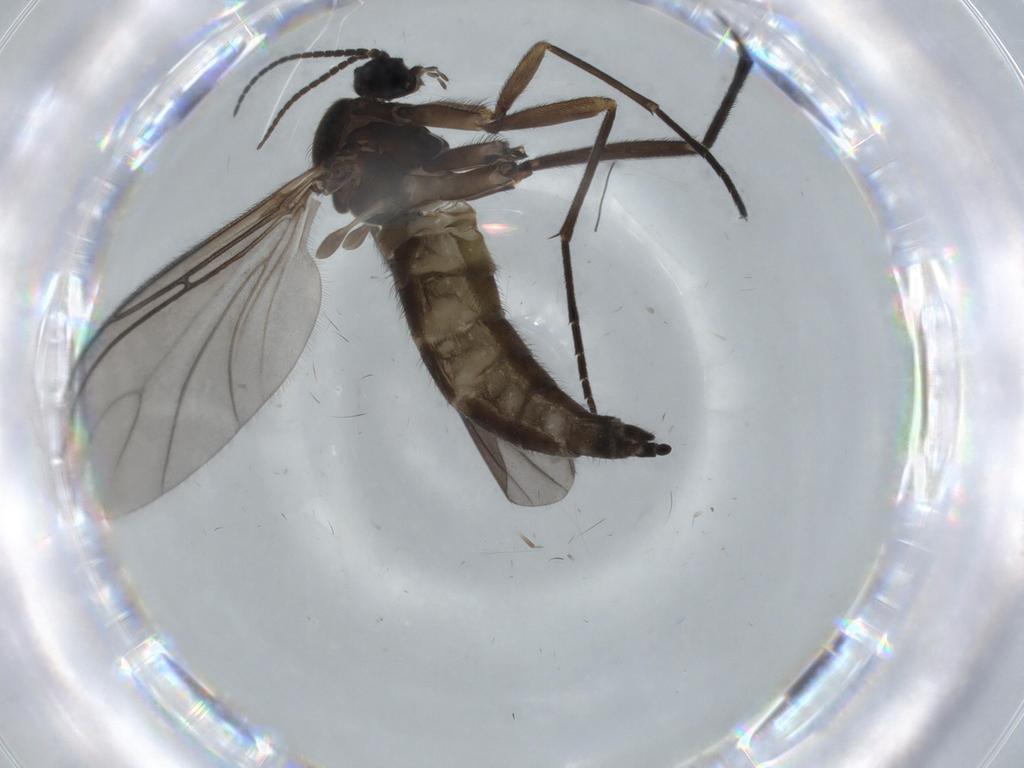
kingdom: Animalia
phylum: Arthropoda
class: Insecta
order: Diptera
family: Sciaridae
